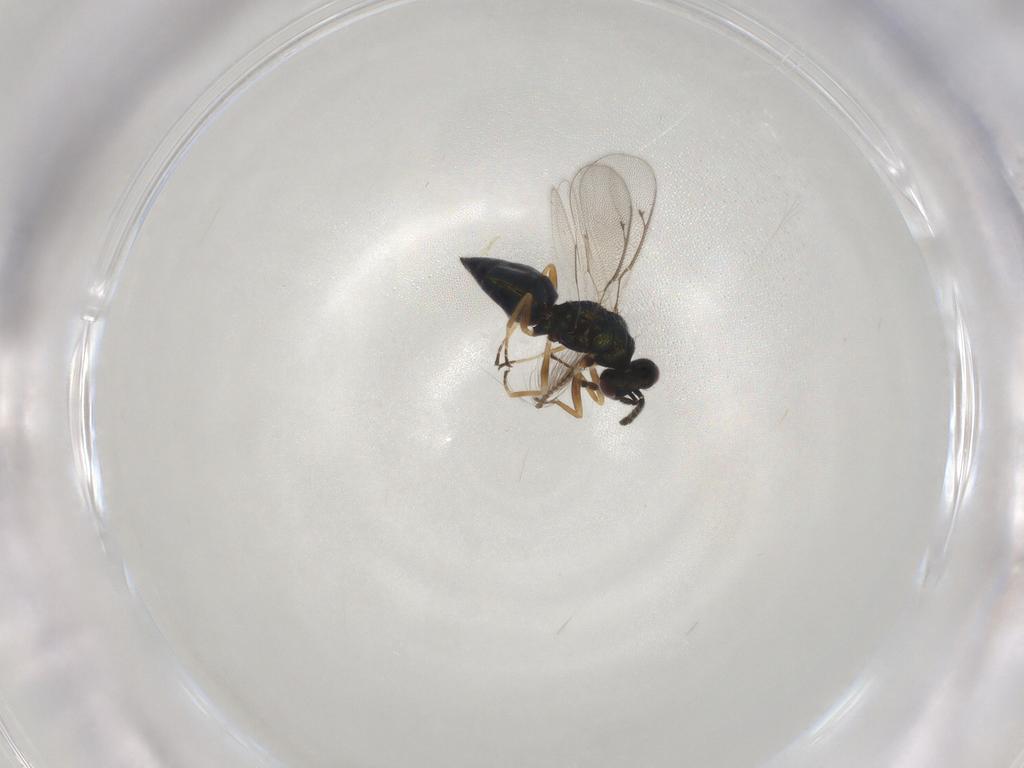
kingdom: Animalia
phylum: Arthropoda
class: Insecta
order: Hymenoptera
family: Eulophidae
